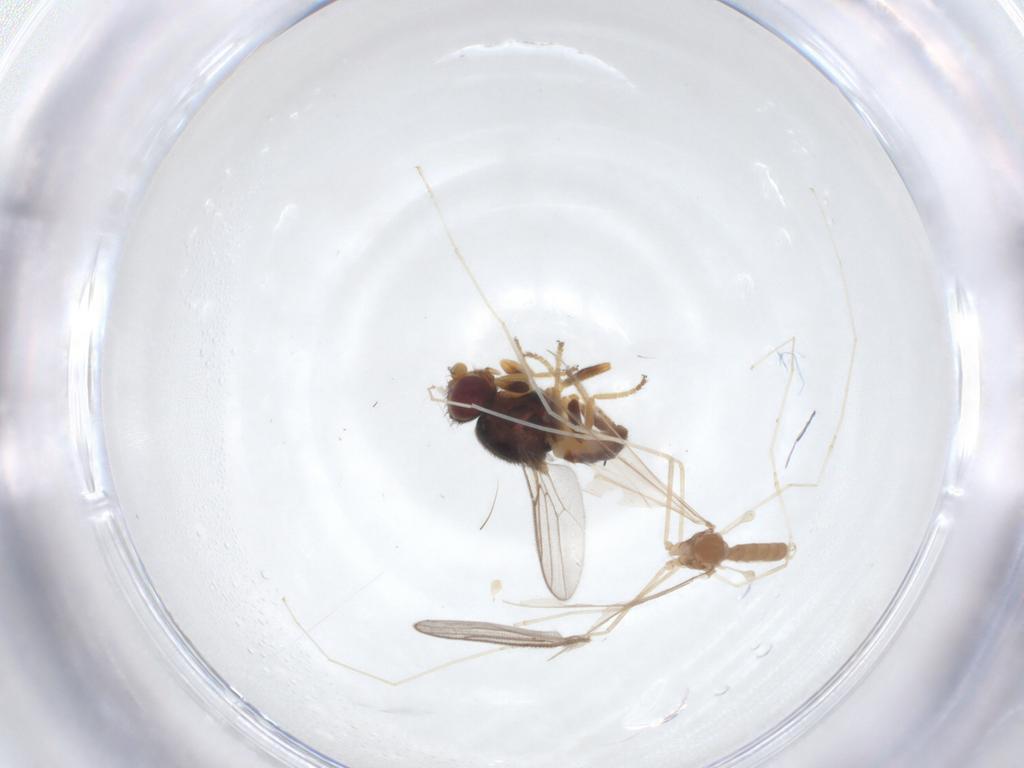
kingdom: Animalia
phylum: Arthropoda
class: Insecta
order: Diptera
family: Chloropidae
